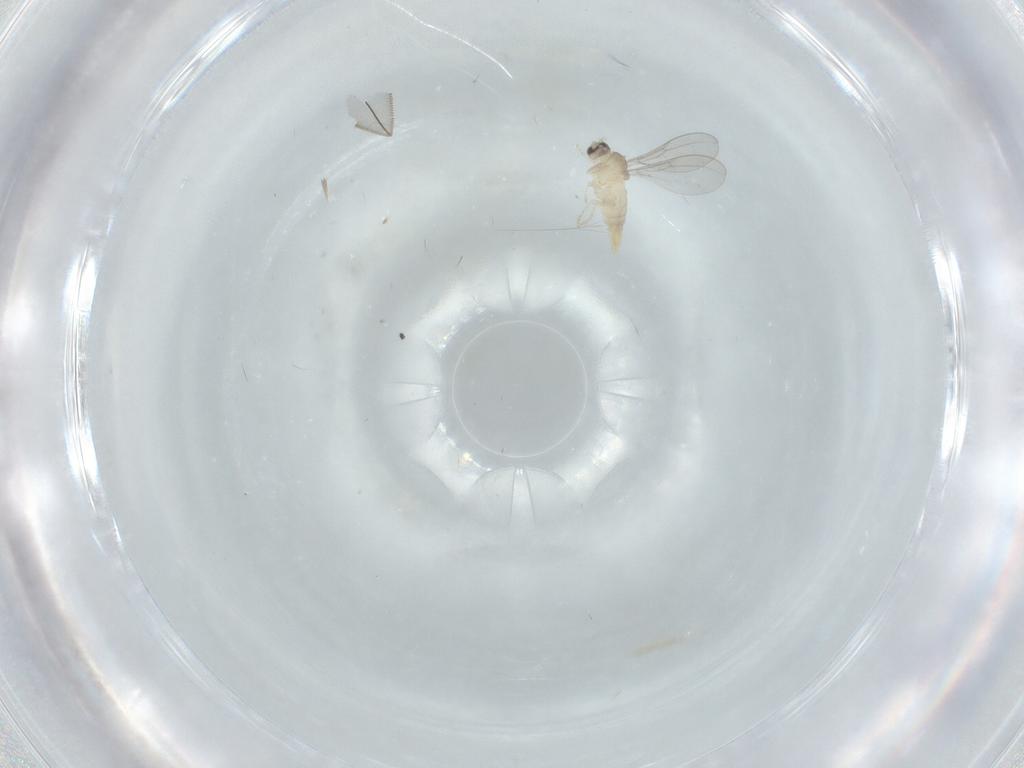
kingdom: Animalia
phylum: Arthropoda
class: Insecta
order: Diptera
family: Cecidomyiidae
